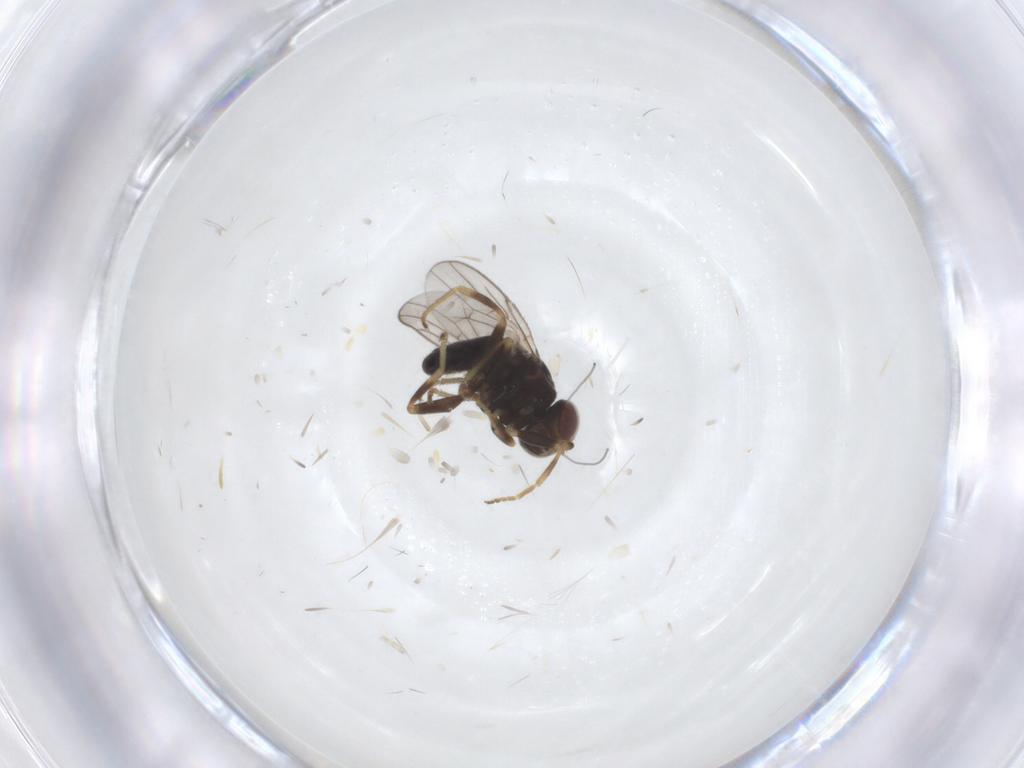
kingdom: Animalia
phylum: Arthropoda
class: Insecta
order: Diptera
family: Chloropidae
